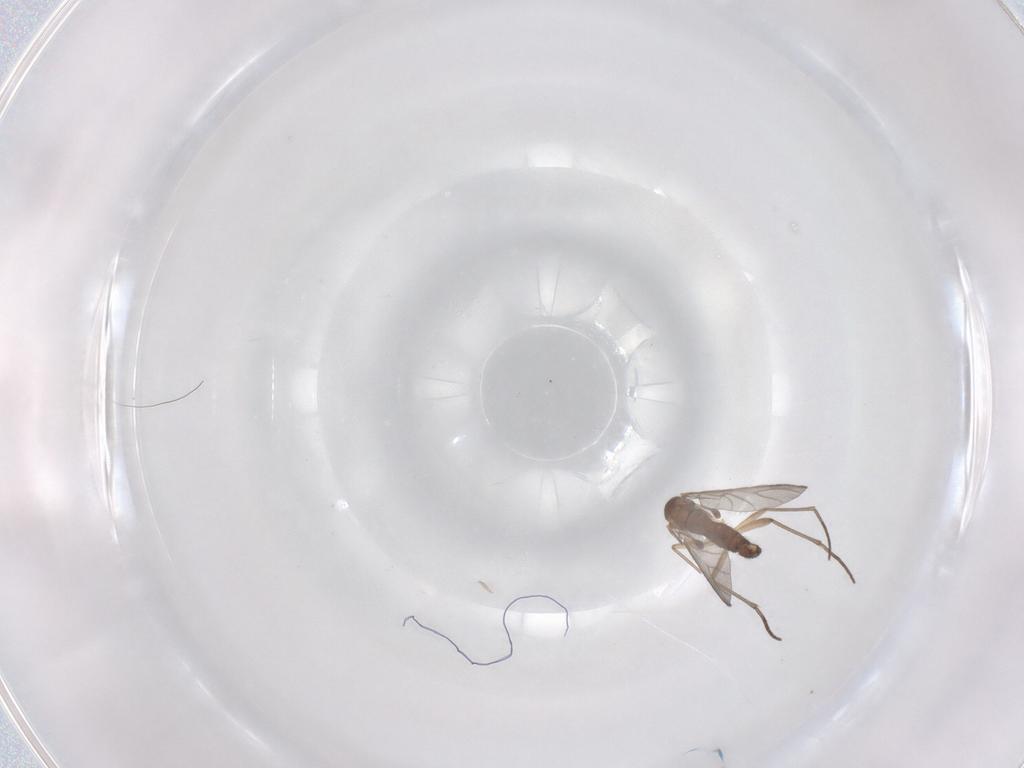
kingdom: Animalia
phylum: Arthropoda
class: Insecta
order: Diptera
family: Sciaridae
